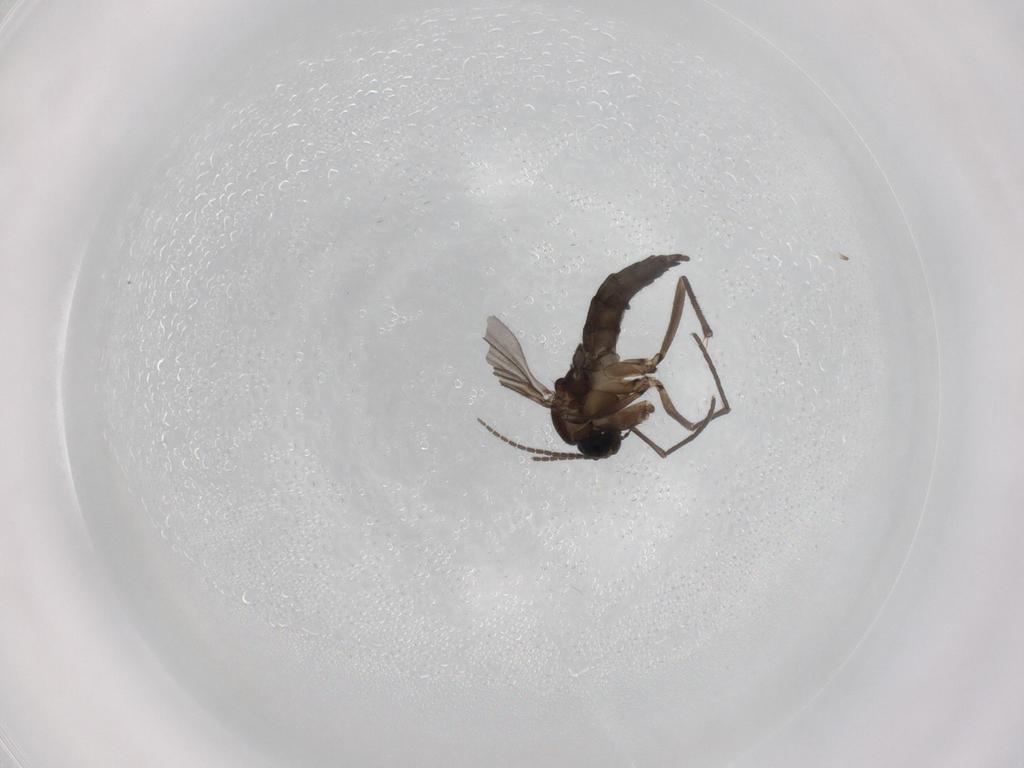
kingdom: Animalia
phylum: Arthropoda
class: Insecta
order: Diptera
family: Sciaridae
